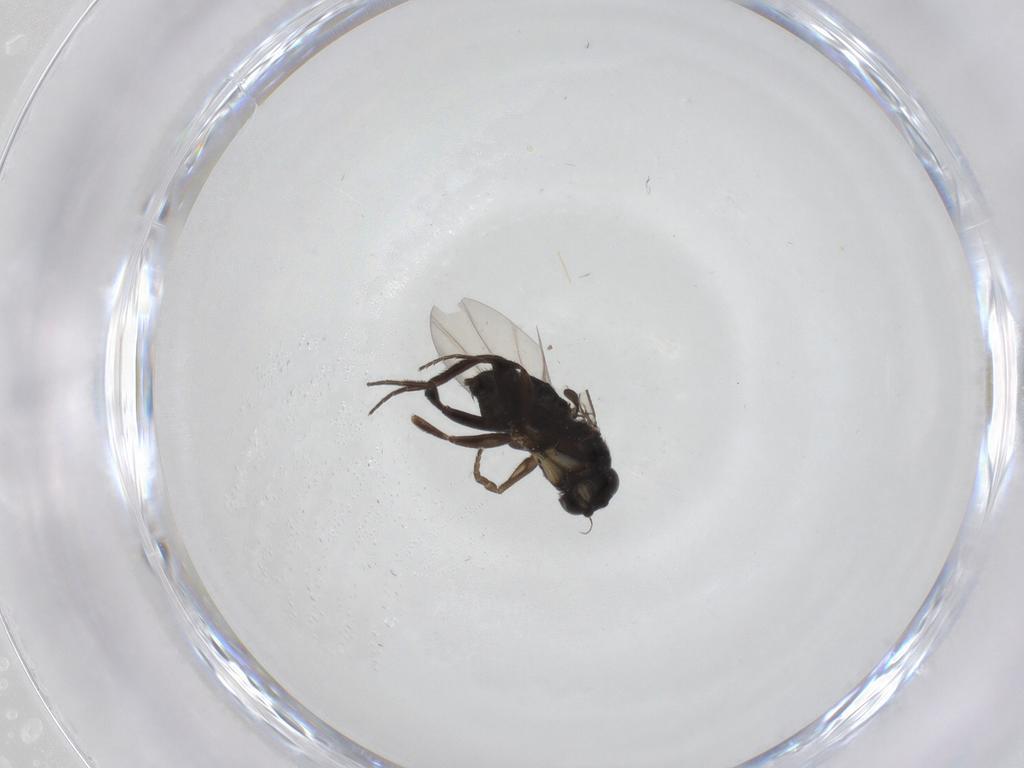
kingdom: Animalia
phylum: Arthropoda
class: Insecta
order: Diptera
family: Phoridae
